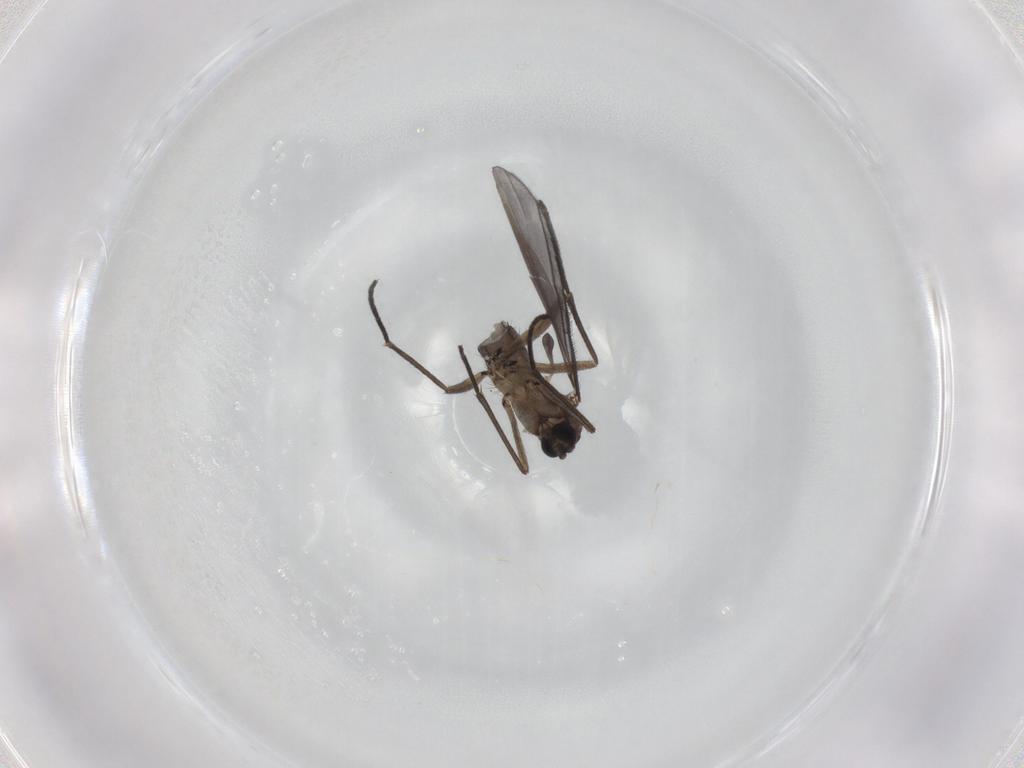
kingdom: Animalia
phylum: Arthropoda
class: Insecta
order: Diptera
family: Sciaridae
